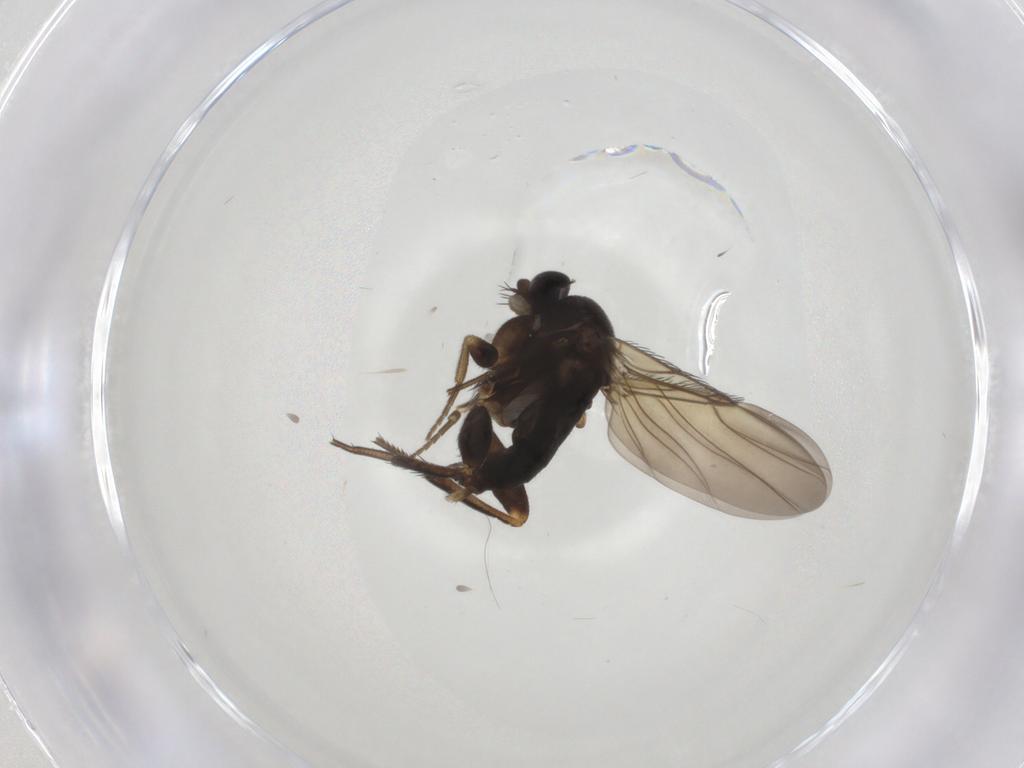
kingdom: Animalia
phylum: Arthropoda
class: Insecta
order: Diptera
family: Phoridae
